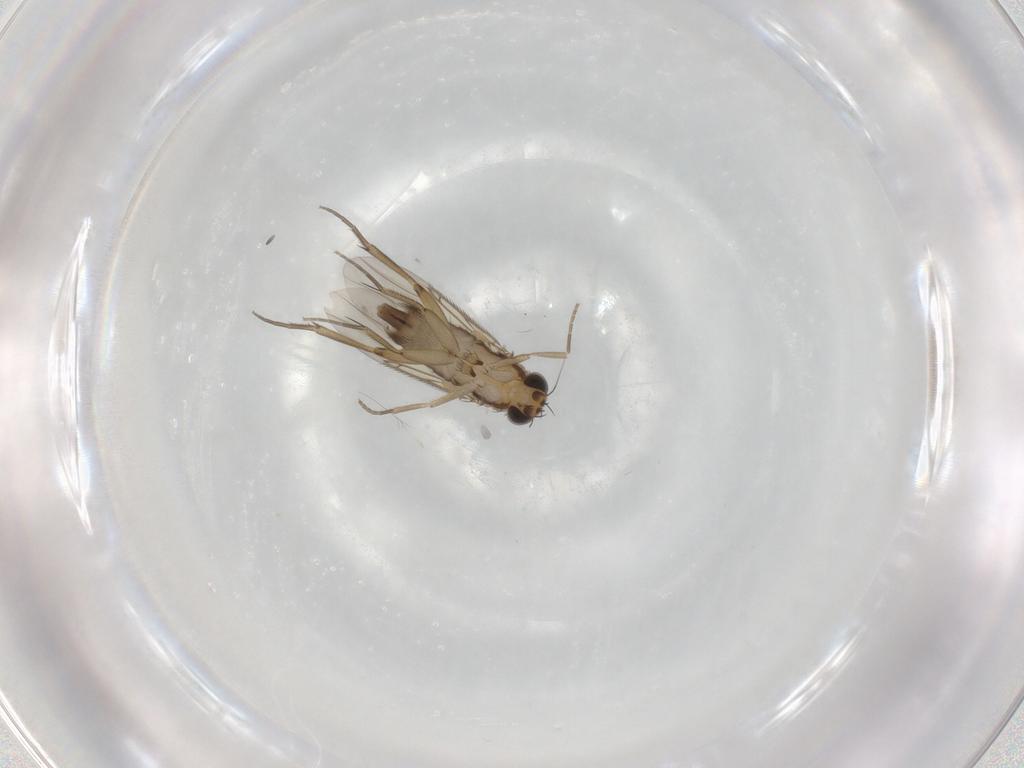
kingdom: Animalia
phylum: Arthropoda
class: Insecta
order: Diptera
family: Phoridae
